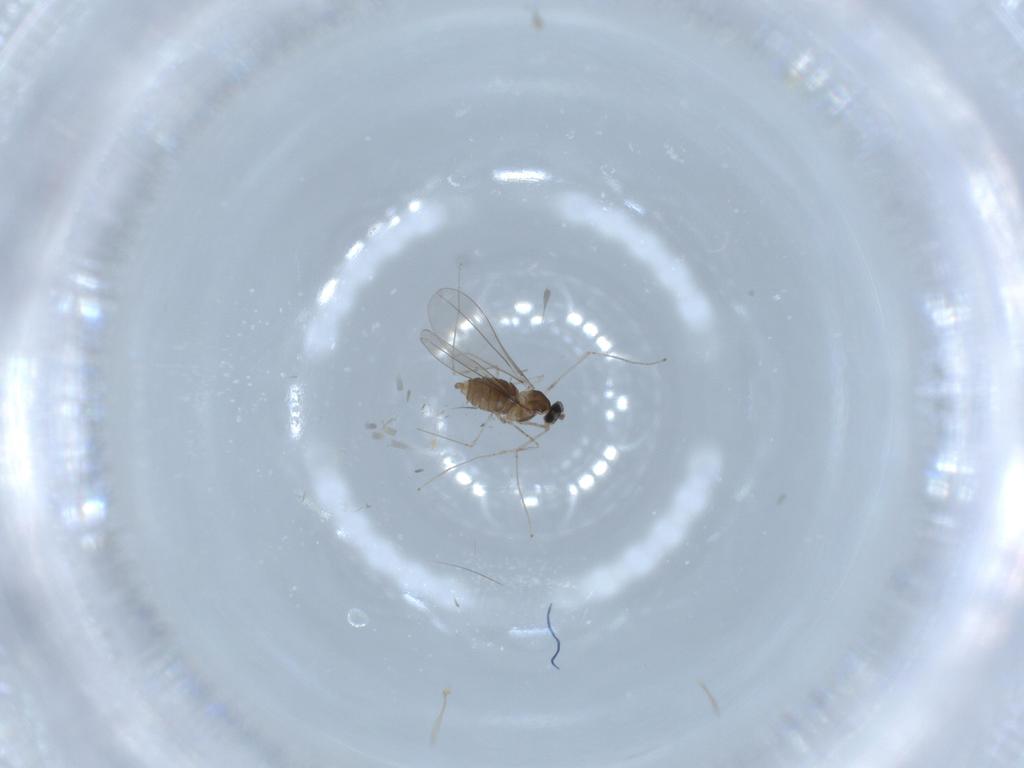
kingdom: Animalia
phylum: Arthropoda
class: Insecta
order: Diptera
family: Cecidomyiidae
